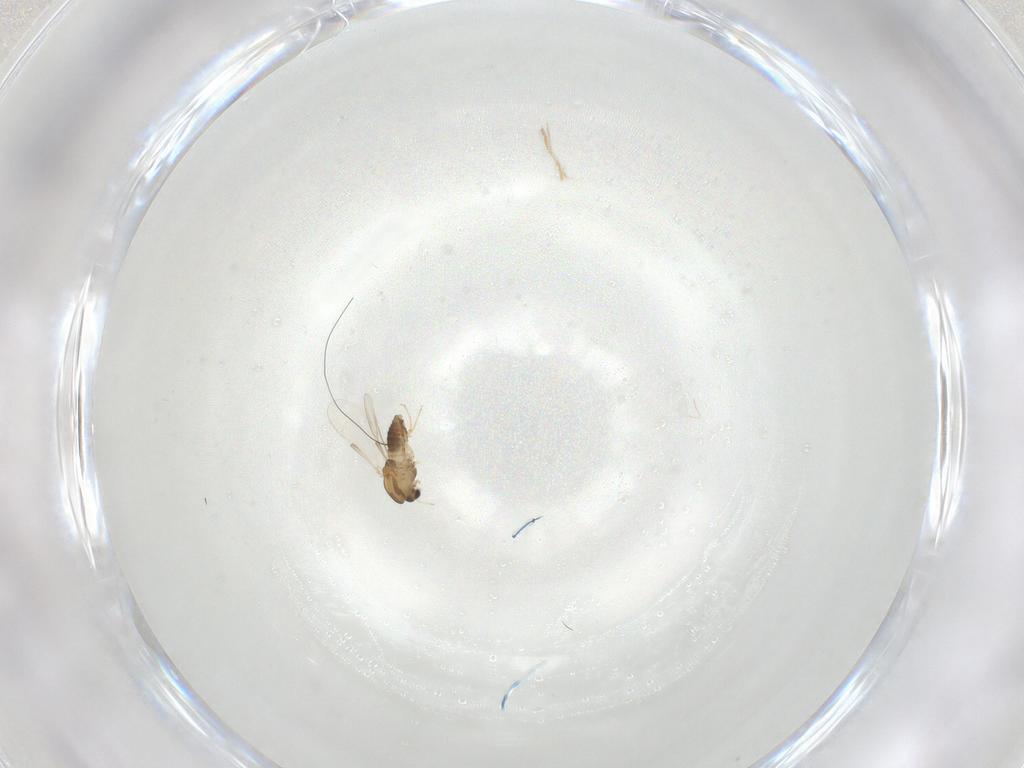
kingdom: Animalia
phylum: Arthropoda
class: Insecta
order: Diptera
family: Chironomidae
